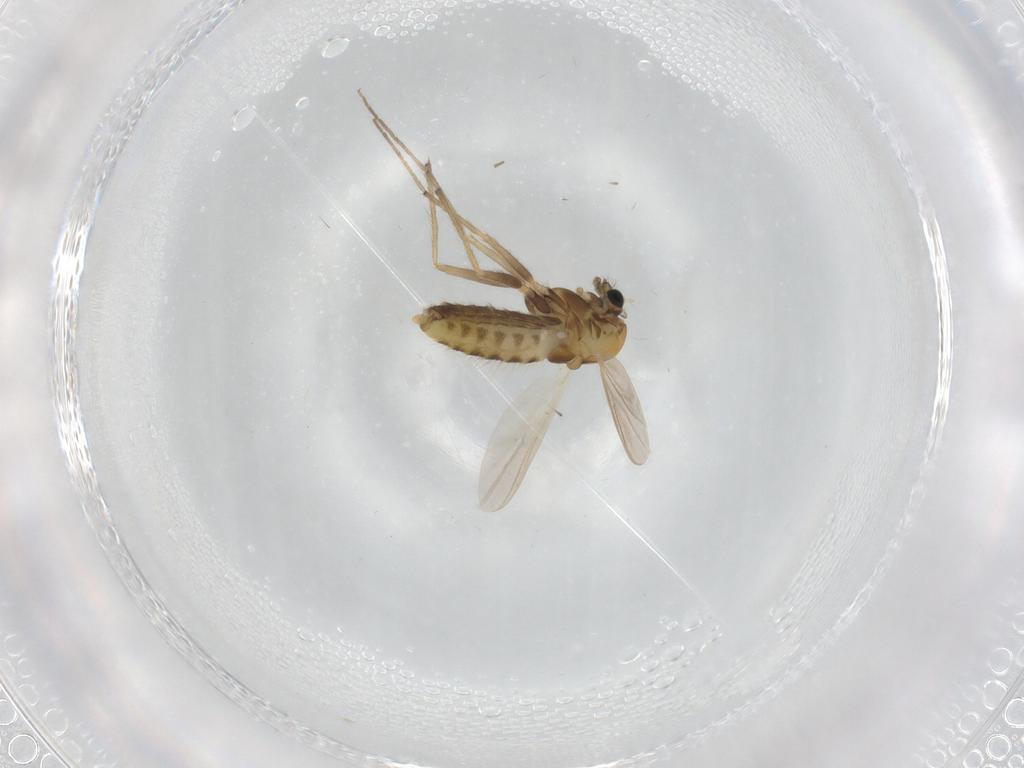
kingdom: Animalia
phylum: Arthropoda
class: Insecta
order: Diptera
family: Chironomidae
